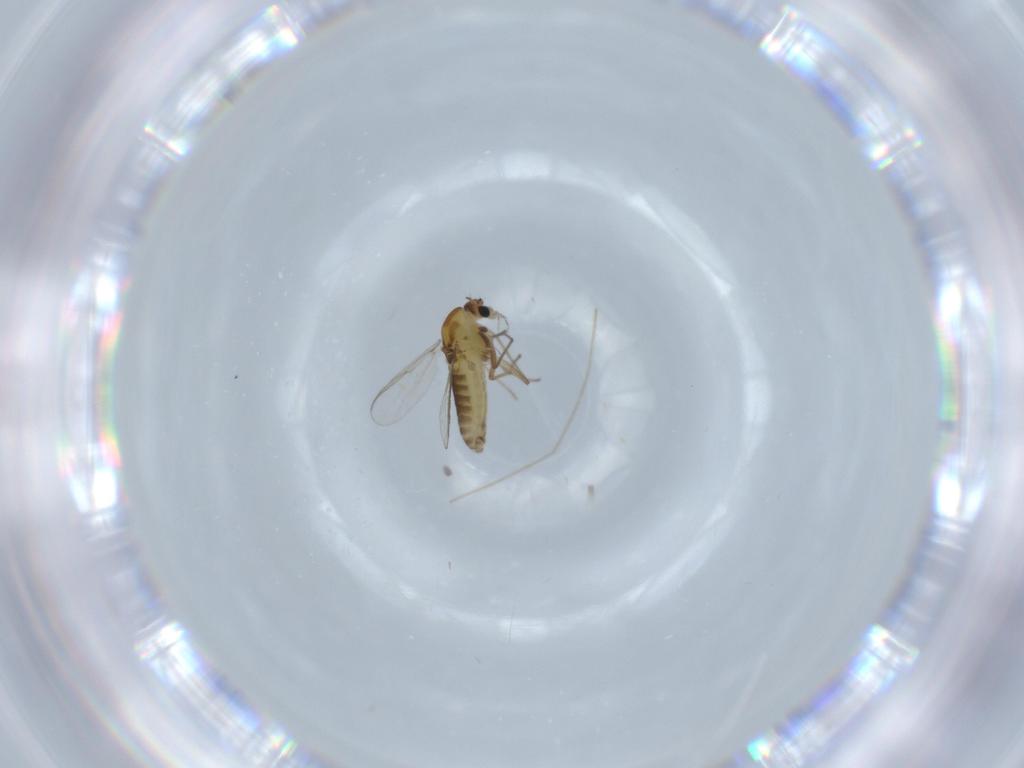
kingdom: Animalia
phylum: Arthropoda
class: Insecta
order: Diptera
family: Chironomidae
